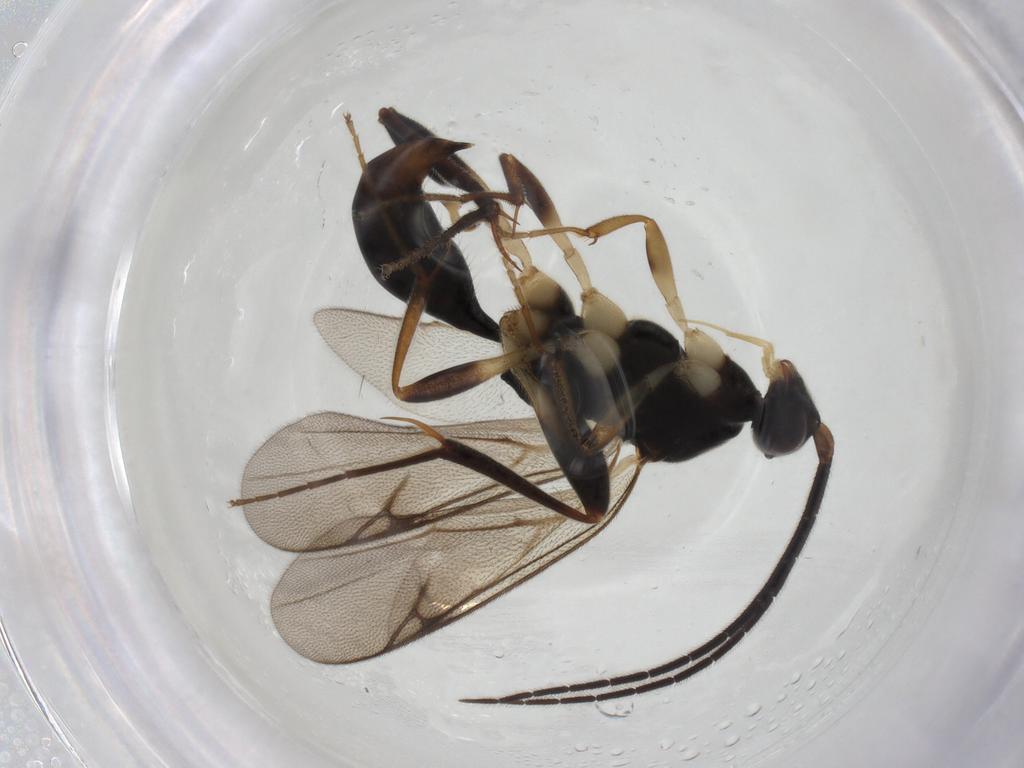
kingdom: Animalia
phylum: Arthropoda
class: Insecta
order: Hymenoptera
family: Proctotrupidae
